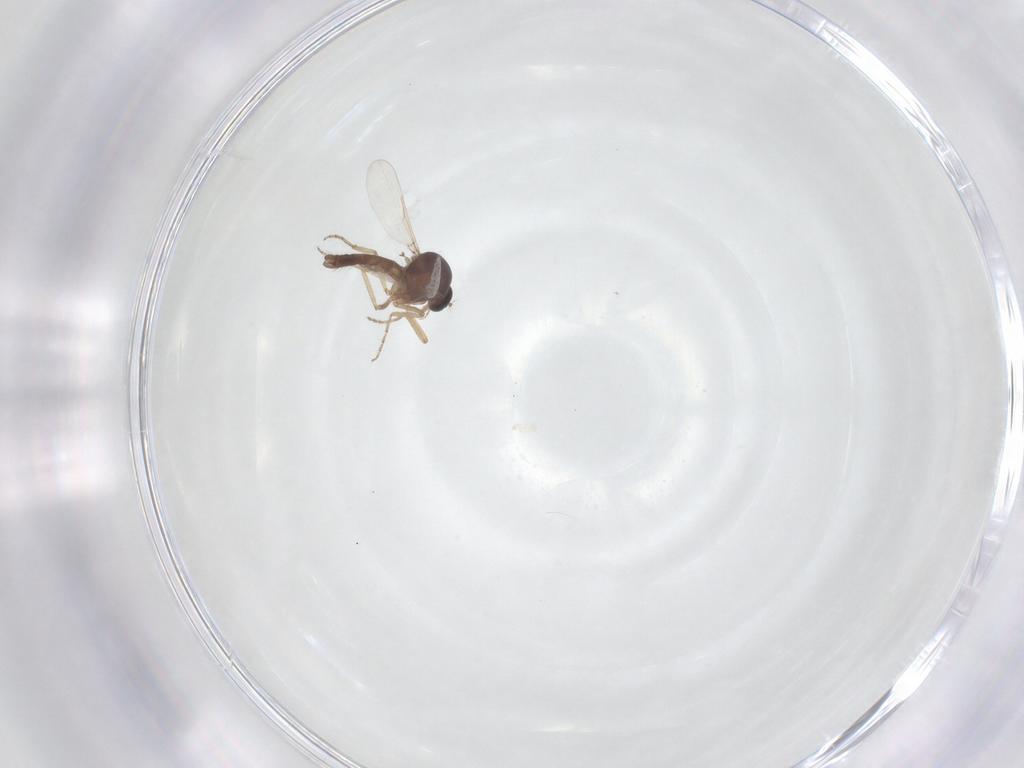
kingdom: Animalia
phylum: Arthropoda
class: Insecta
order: Diptera
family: Ceratopogonidae
